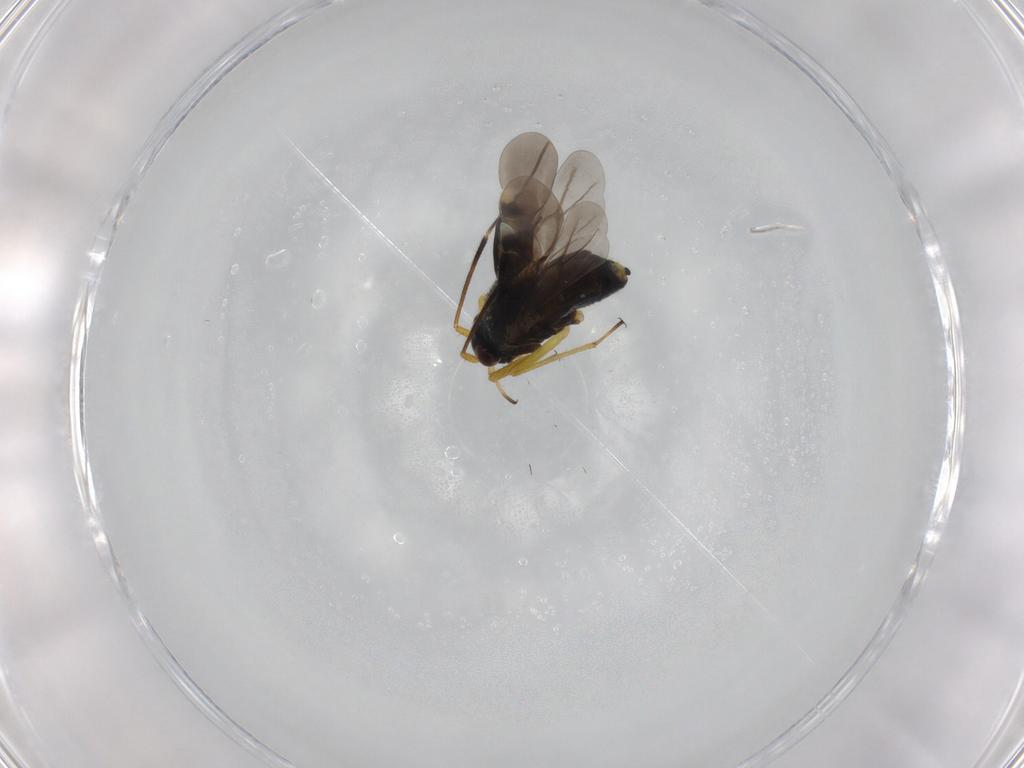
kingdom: Animalia
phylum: Arthropoda
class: Insecta
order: Hemiptera
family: Miridae
